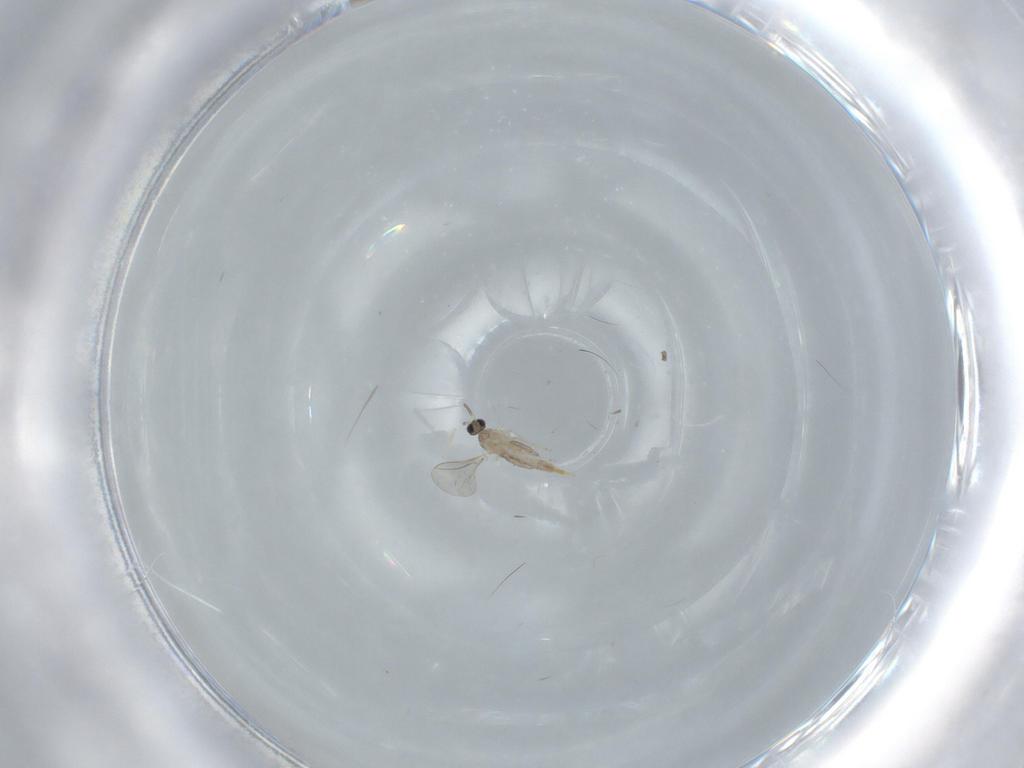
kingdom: Animalia
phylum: Arthropoda
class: Insecta
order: Diptera
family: Cecidomyiidae
